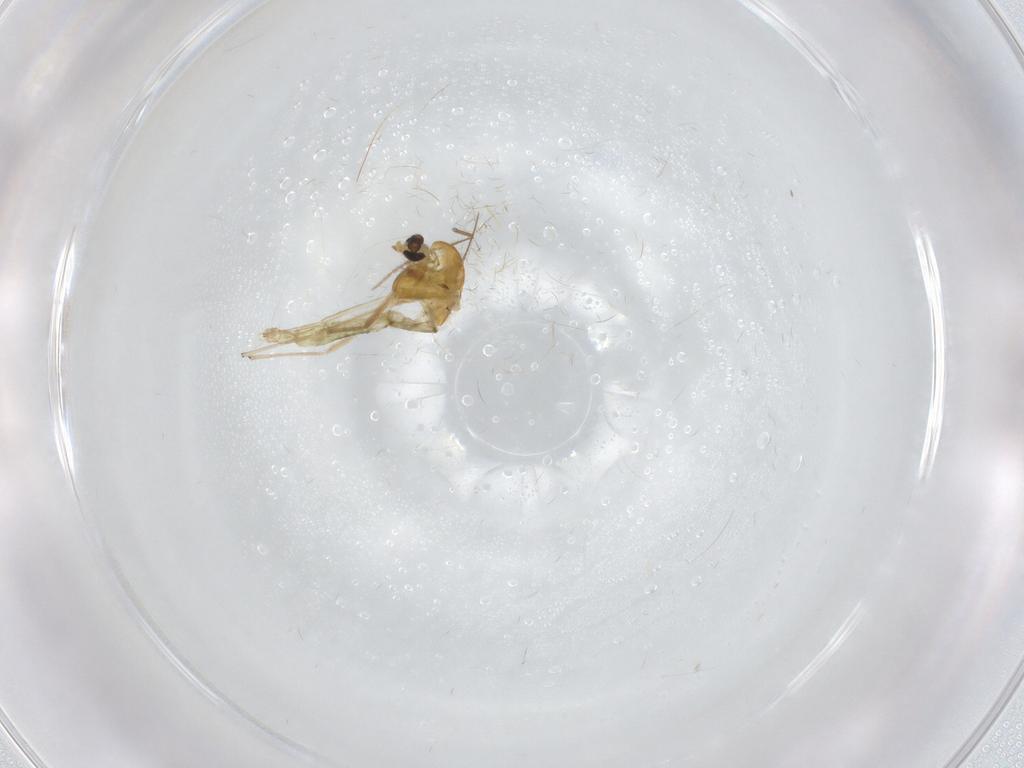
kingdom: Animalia
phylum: Arthropoda
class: Insecta
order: Diptera
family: Chironomidae
